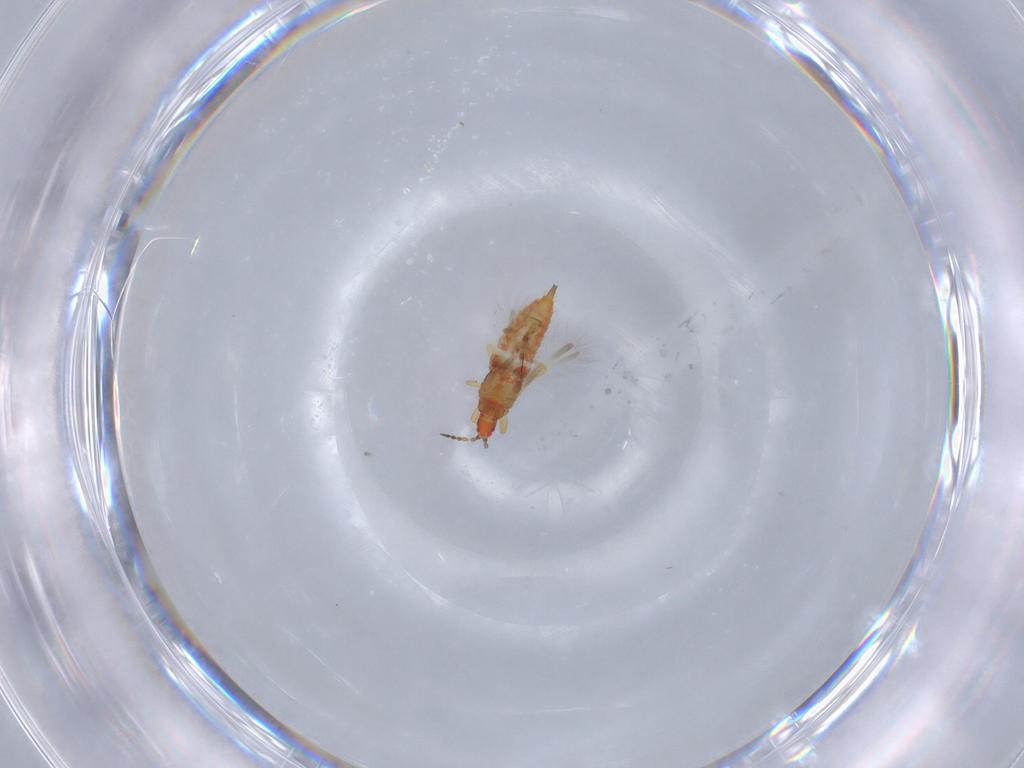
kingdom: Animalia
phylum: Arthropoda
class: Insecta
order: Thysanoptera
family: Phlaeothripidae
